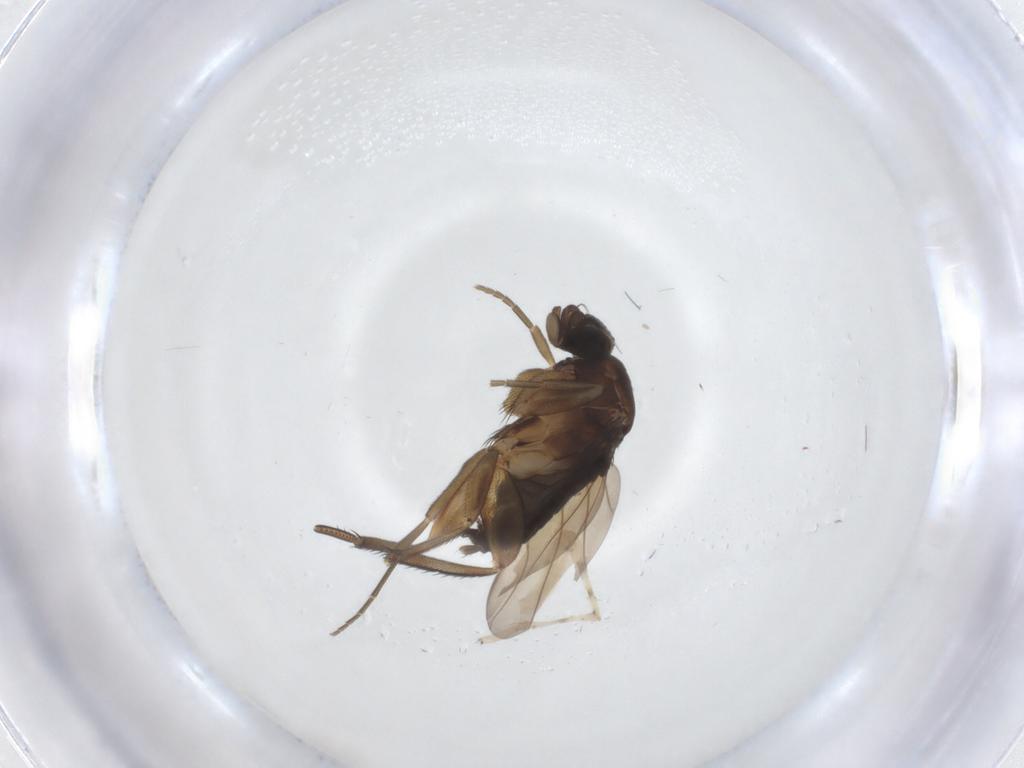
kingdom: Animalia
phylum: Arthropoda
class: Insecta
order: Diptera
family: Phoridae
